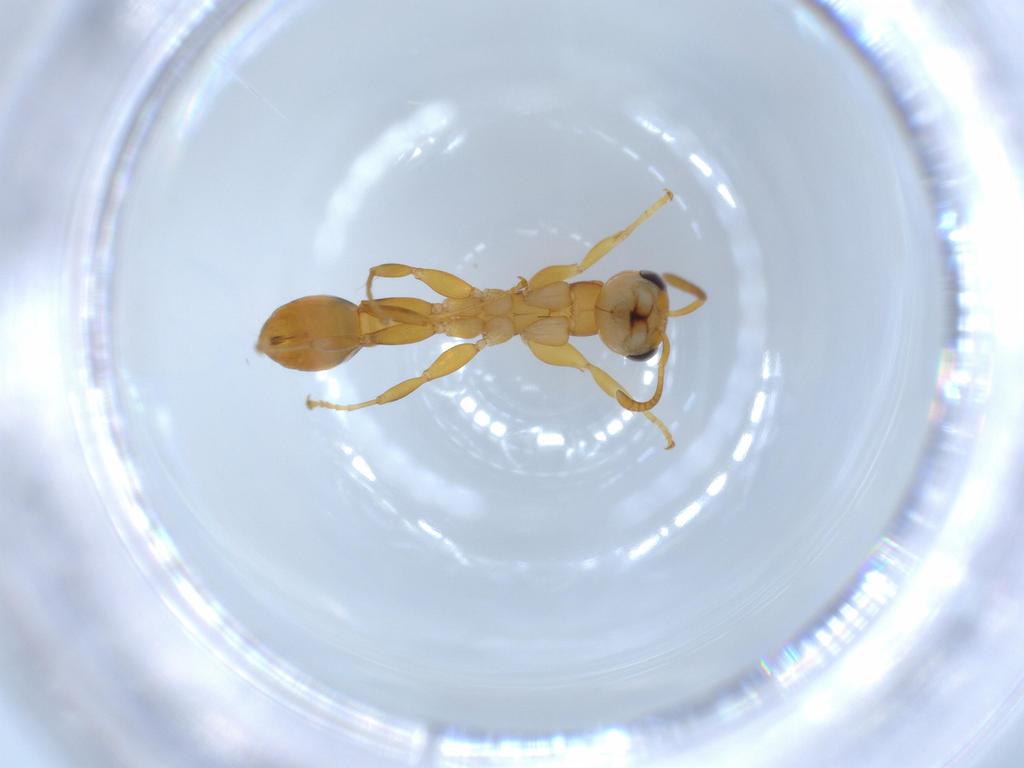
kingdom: Animalia
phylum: Arthropoda
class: Insecta
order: Hymenoptera
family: Formicidae
